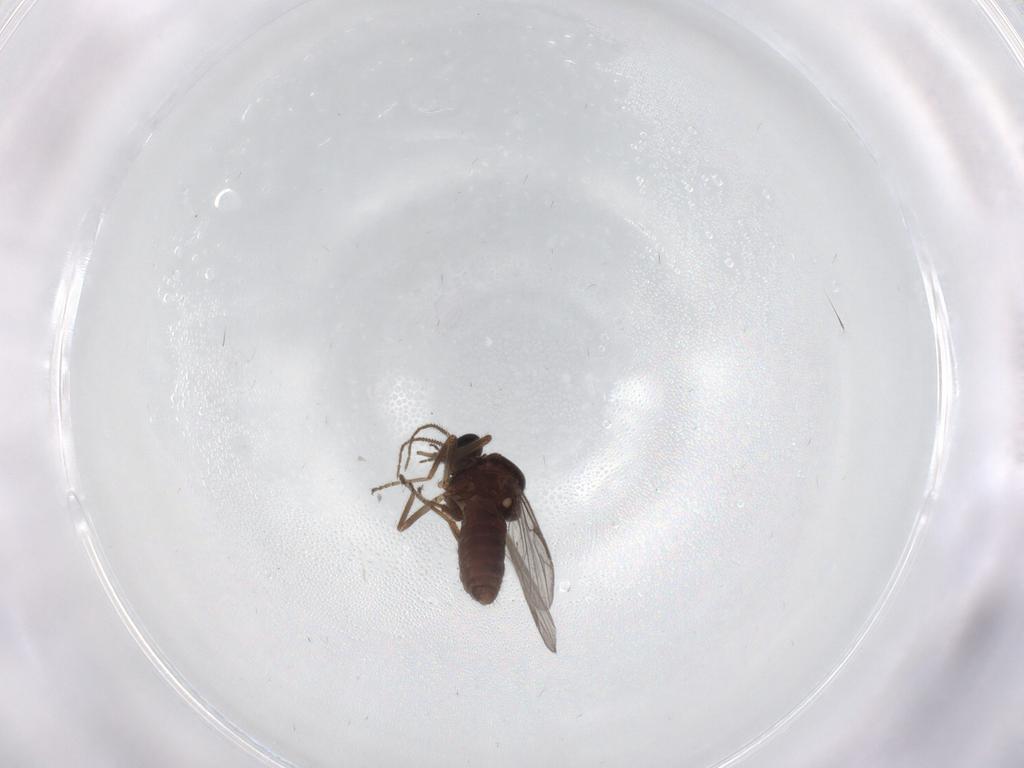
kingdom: Animalia
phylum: Arthropoda
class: Insecta
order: Diptera
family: Ceratopogonidae
